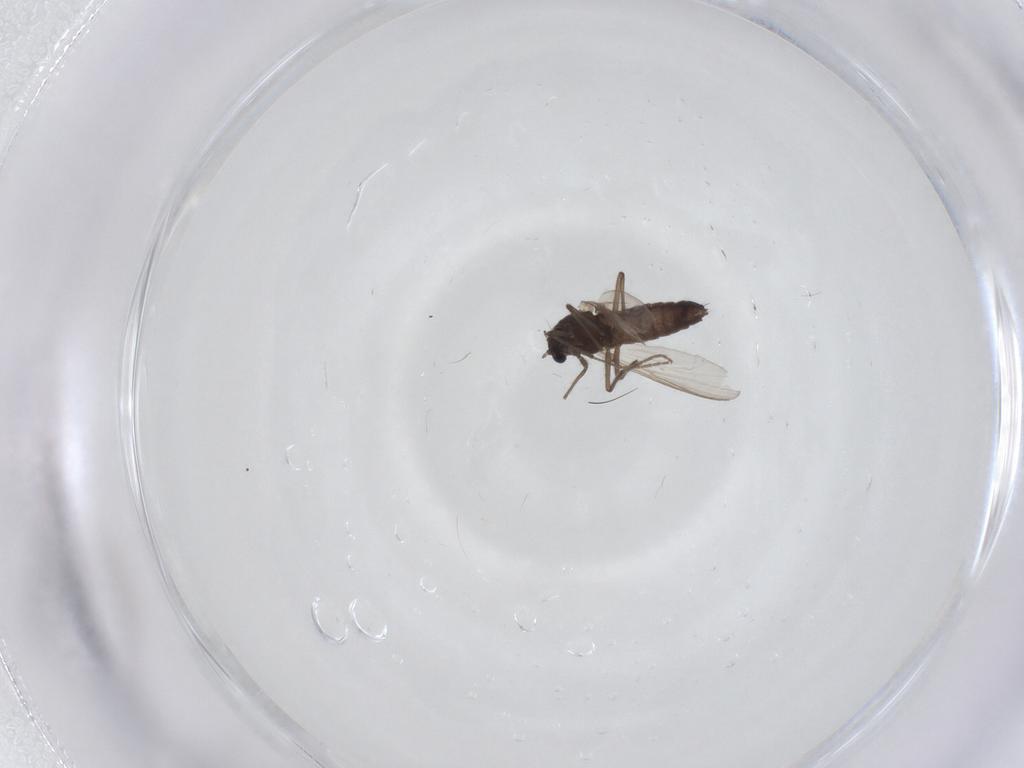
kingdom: Animalia
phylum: Arthropoda
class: Insecta
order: Diptera
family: Chironomidae
